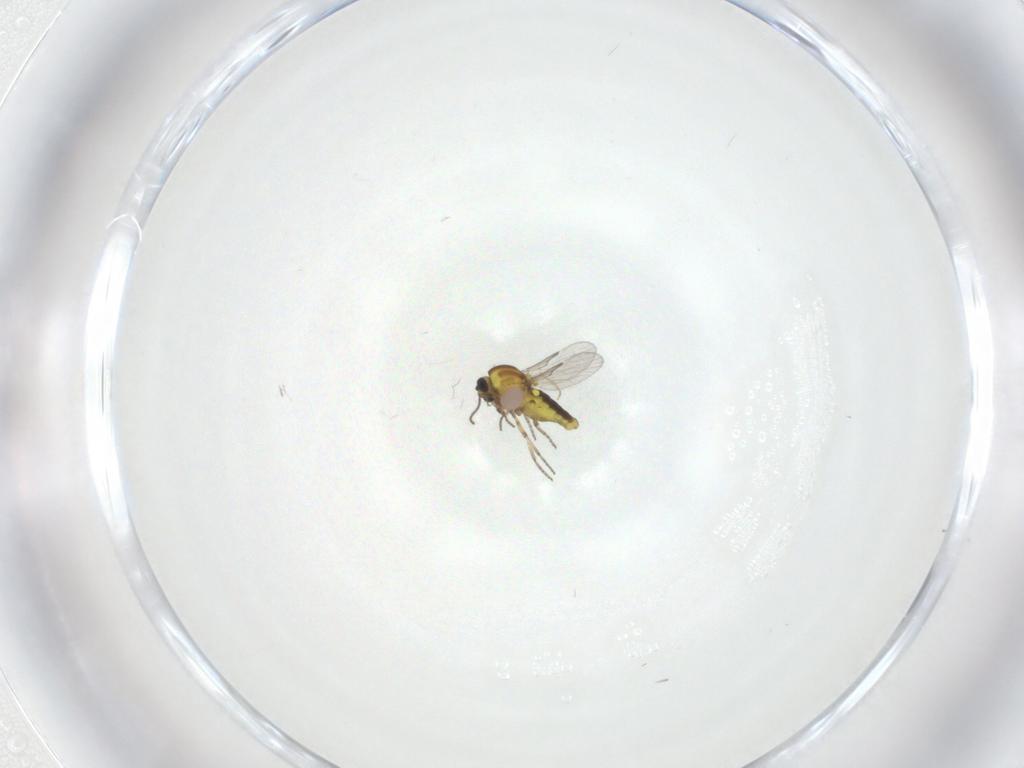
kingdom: Animalia
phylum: Arthropoda
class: Insecta
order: Diptera
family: Ceratopogonidae
